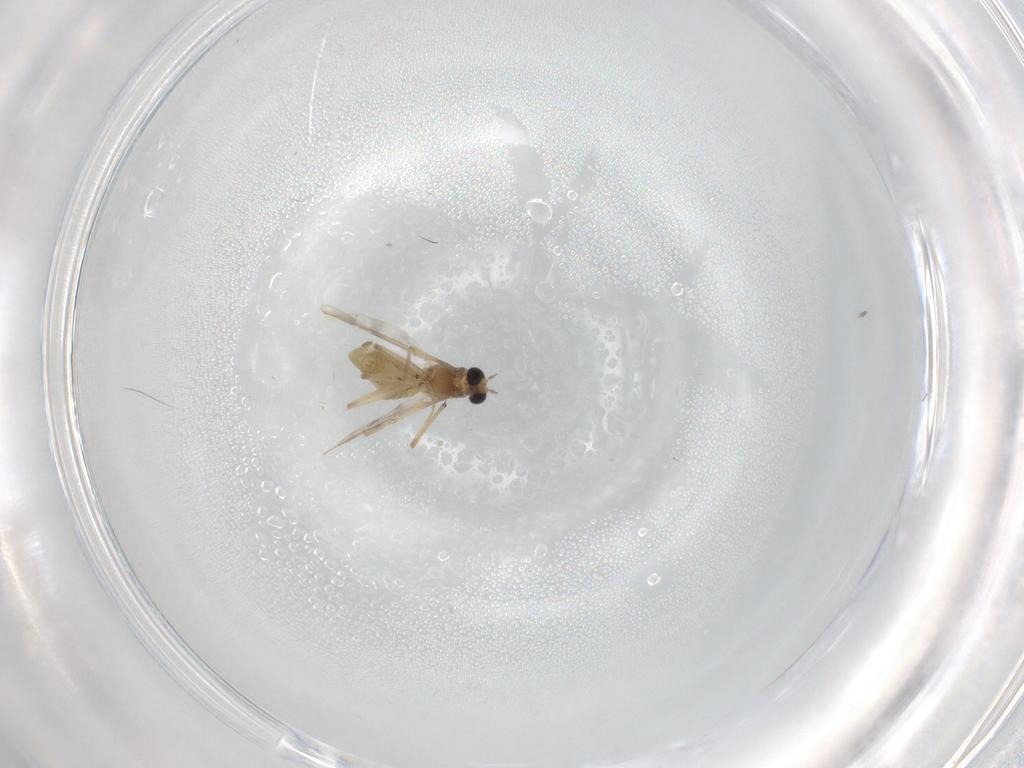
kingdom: Animalia
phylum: Arthropoda
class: Insecta
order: Diptera
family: Chironomidae
